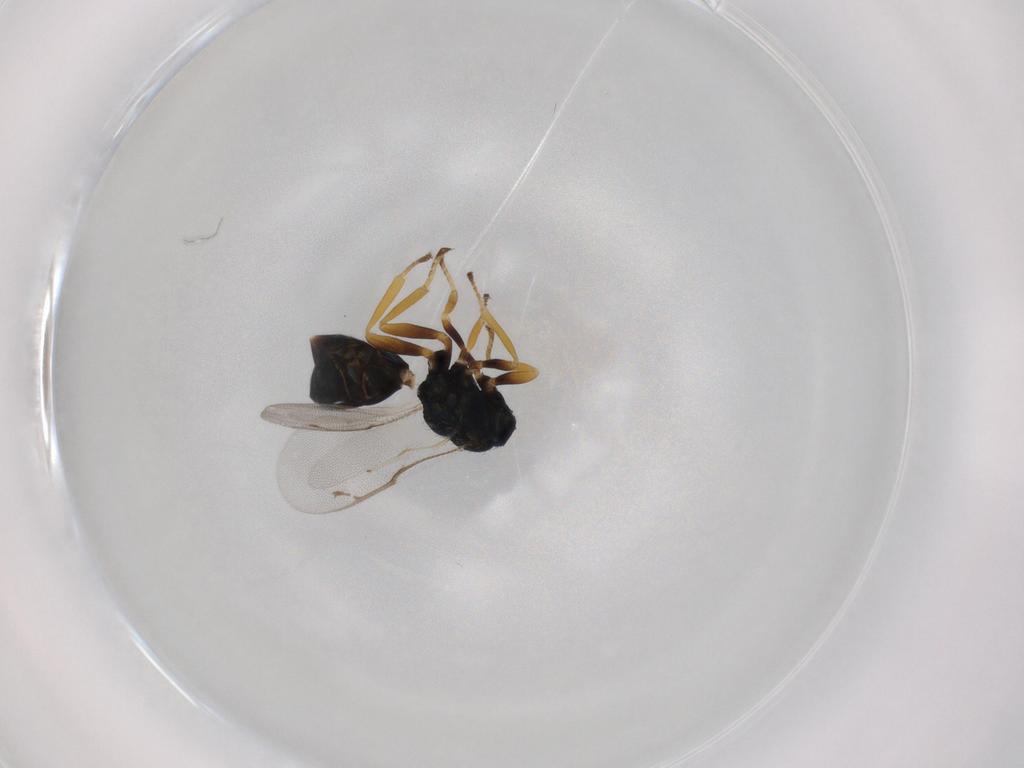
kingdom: Animalia
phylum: Arthropoda
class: Insecta
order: Hymenoptera
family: Pteromalidae
